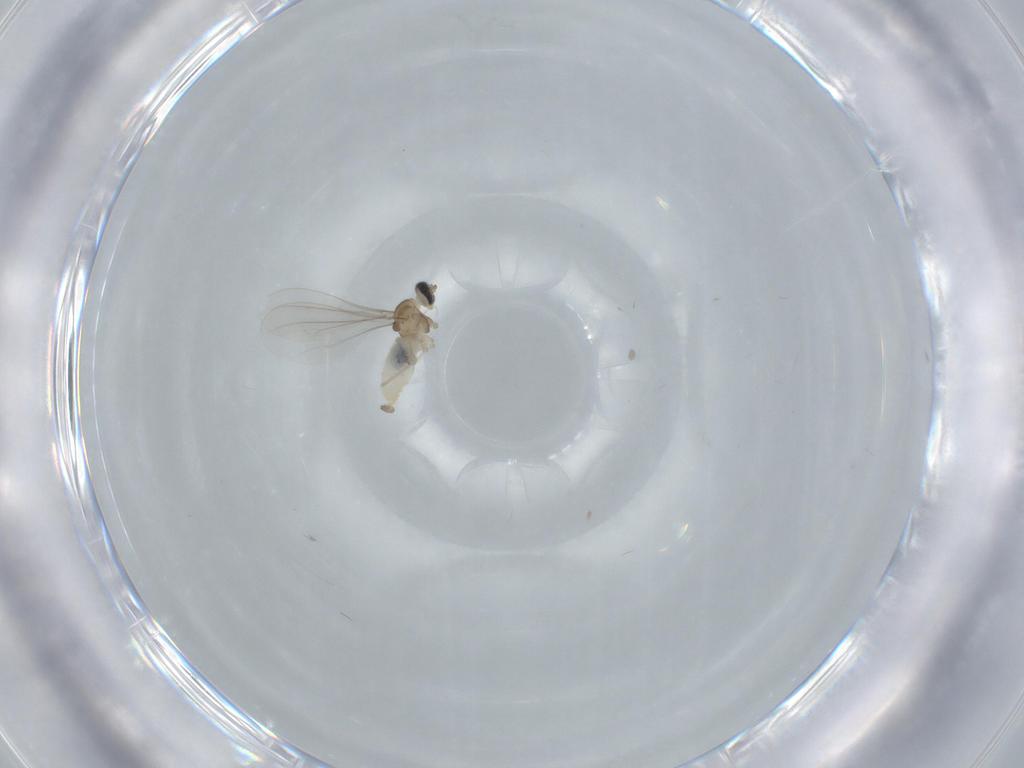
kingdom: Animalia
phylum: Arthropoda
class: Insecta
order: Diptera
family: Cecidomyiidae
